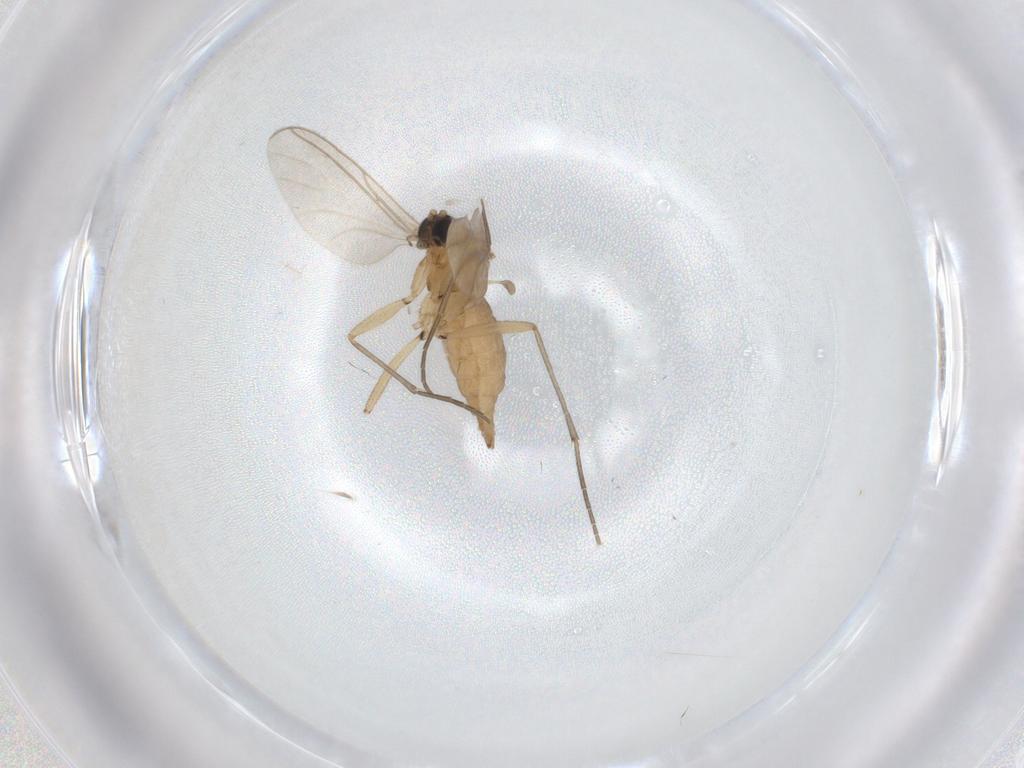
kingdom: Animalia
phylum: Arthropoda
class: Insecta
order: Diptera
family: Sciaridae
